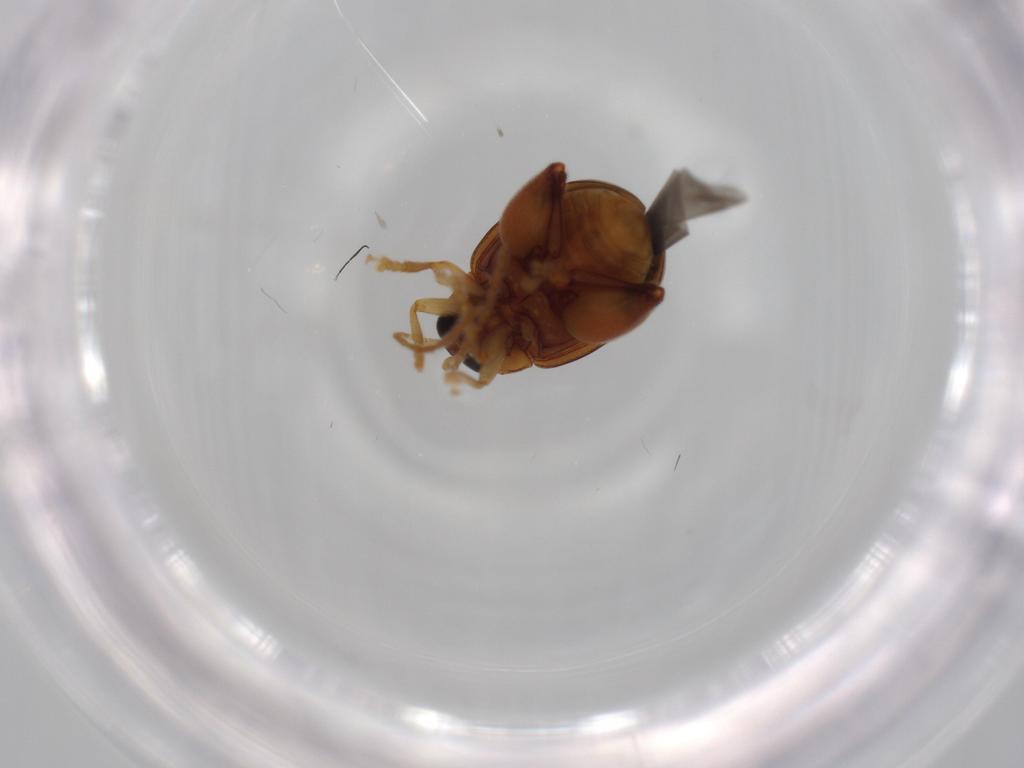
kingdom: Animalia
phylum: Arthropoda
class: Insecta
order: Coleoptera
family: Chrysomelidae
